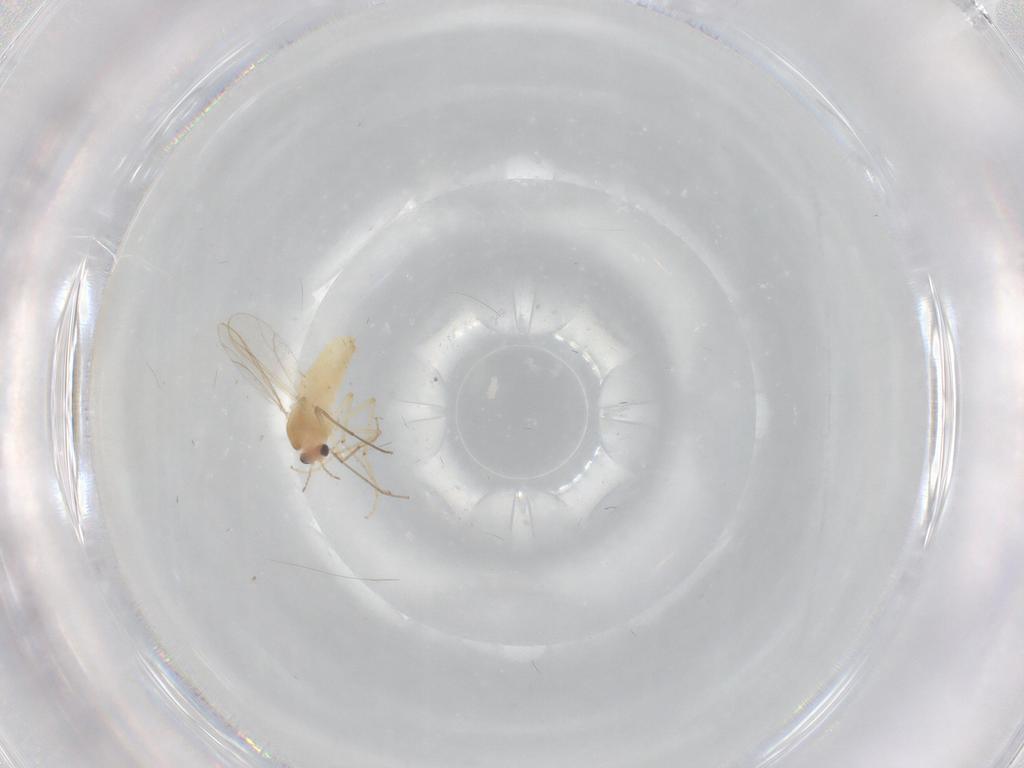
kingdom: Animalia
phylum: Arthropoda
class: Insecta
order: Diptera
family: Chironomidae
